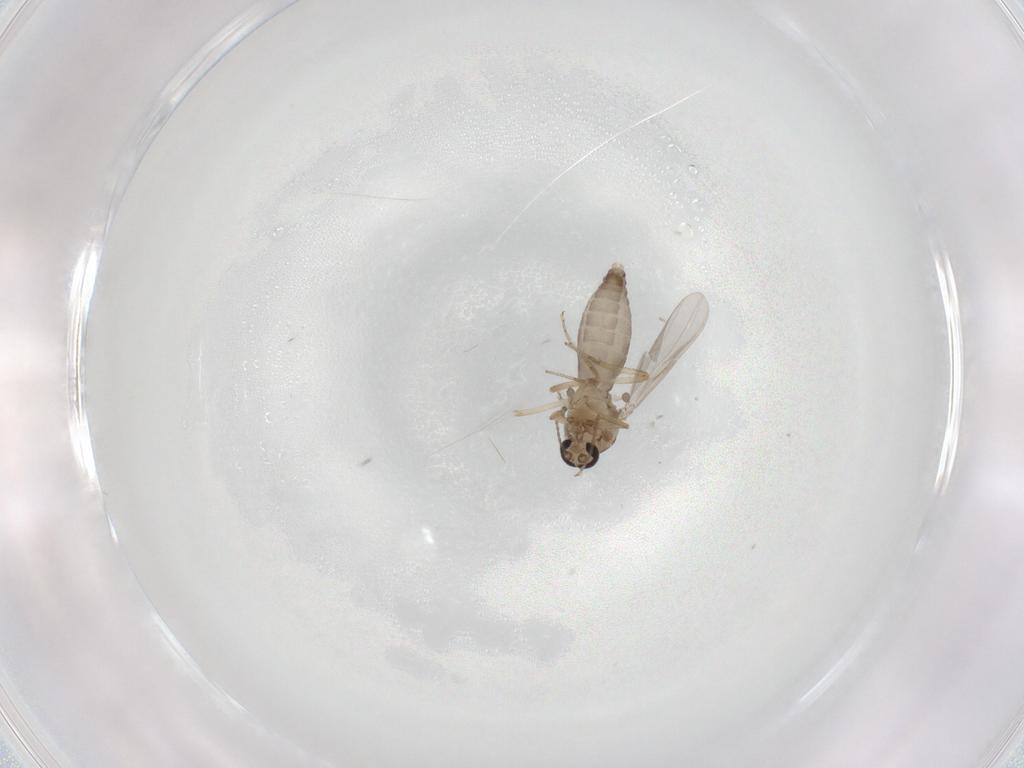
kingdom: Animalia
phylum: Arthropoda
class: Insecta
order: Diptera
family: Ceratopogonidae
